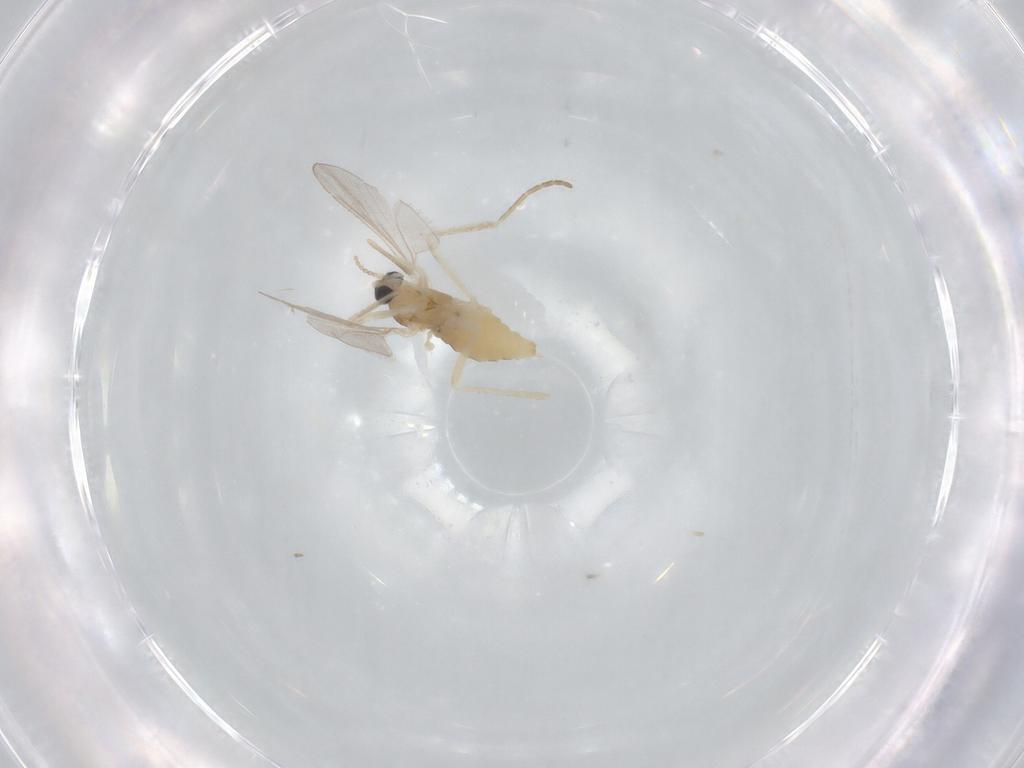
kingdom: Animalia
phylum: Arthropoda
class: Insecta
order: Diptera
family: Cecidomyiidae
